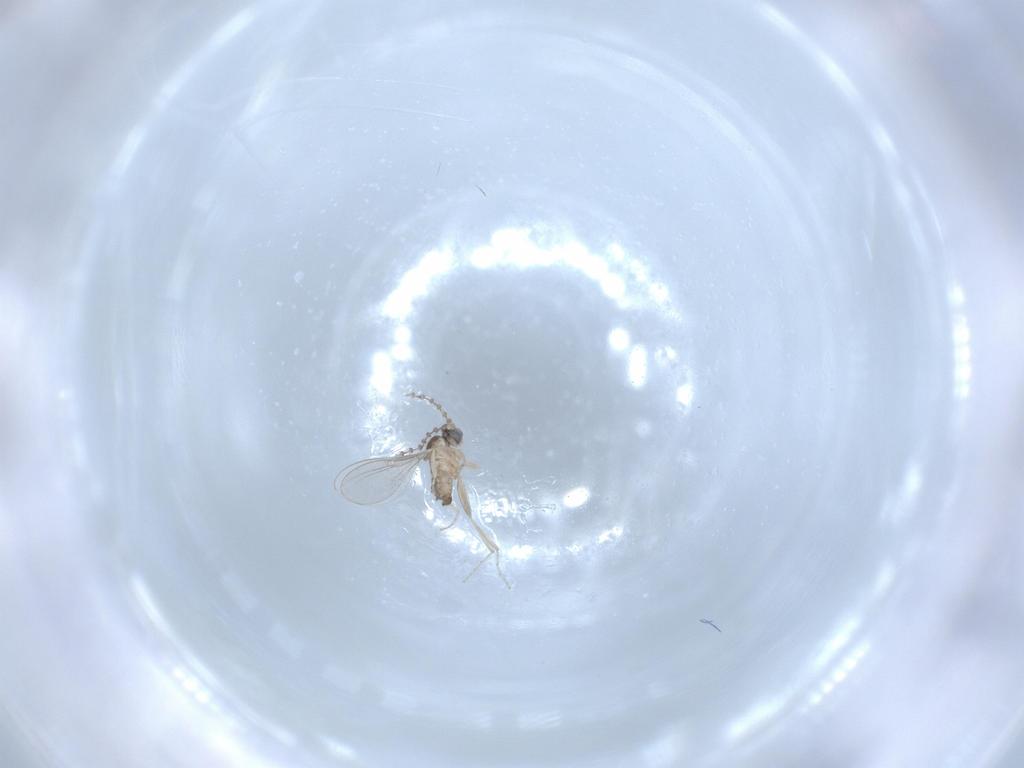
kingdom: Animalia
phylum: Arthropoda
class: Insecta
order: Diptera
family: Cecidomyiidae
